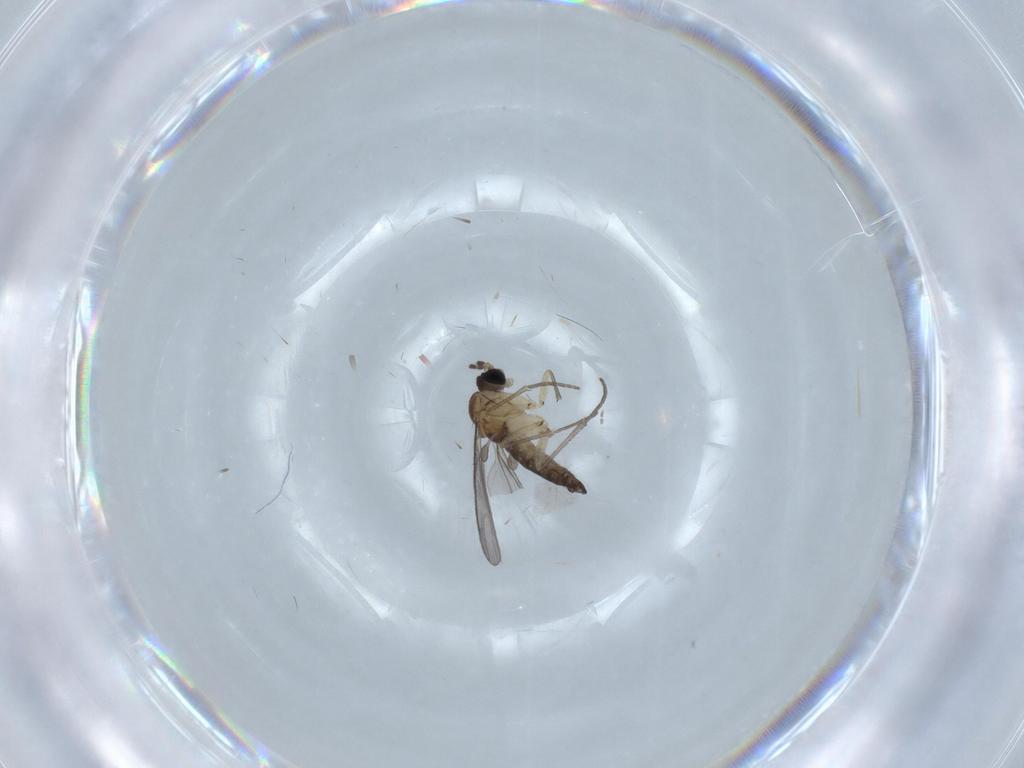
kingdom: Animalia
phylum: Arthropoda
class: Insecta
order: Diptera
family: Sciaridae
